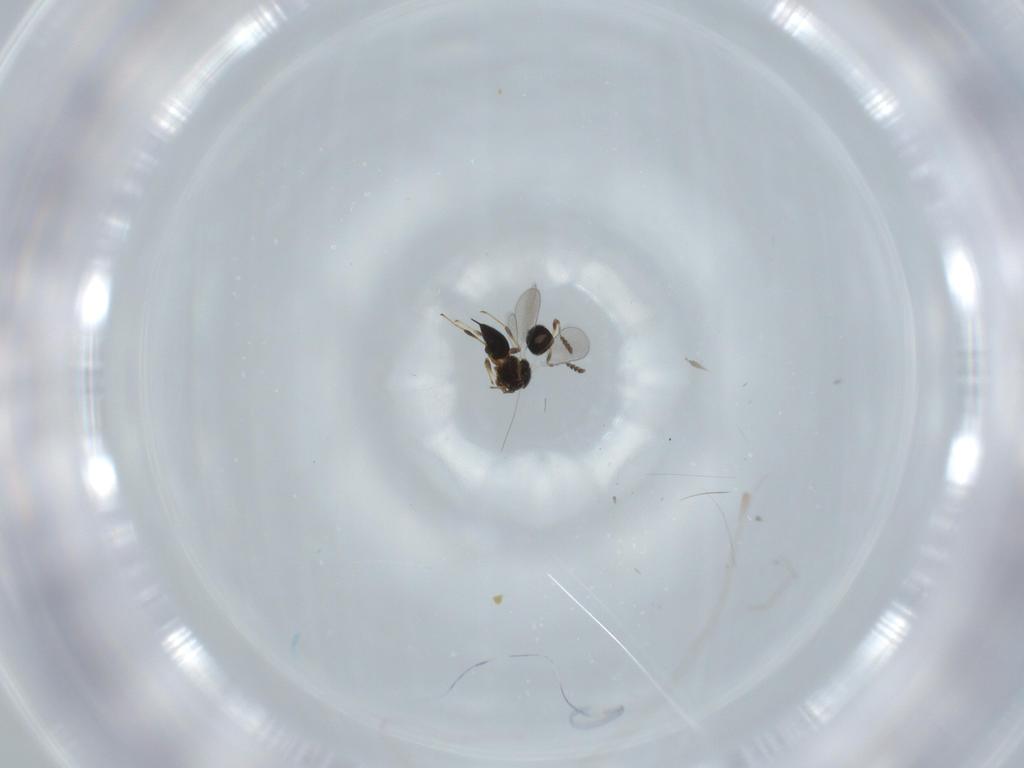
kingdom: Animalia
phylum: Arthropoda
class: Insecta
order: Hymenoptera
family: Platygastridae
